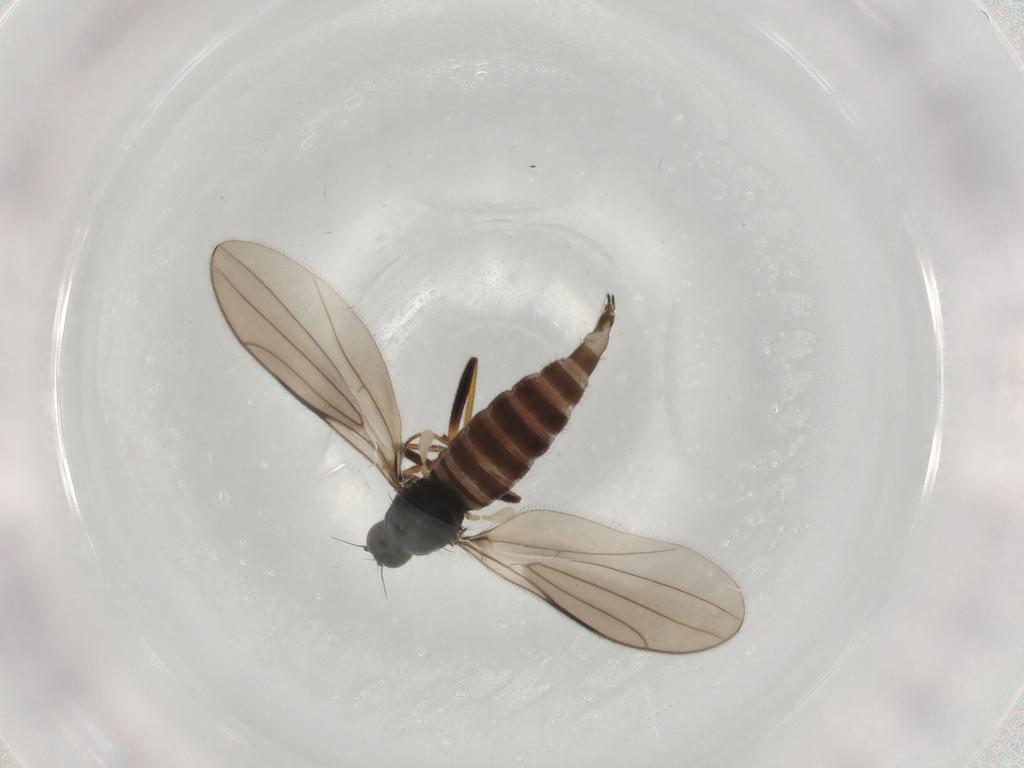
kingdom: Animalia
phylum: Arthropoda
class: Insecta
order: Diptera
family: Hybotidae
